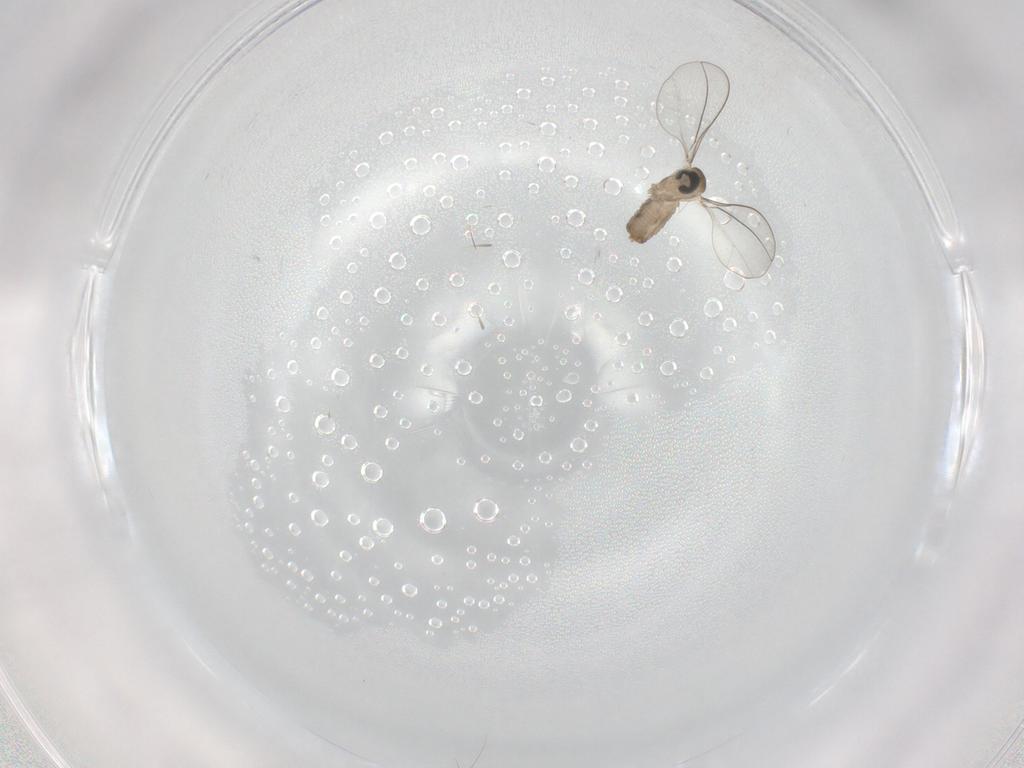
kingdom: Animalia
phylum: Arthropoda
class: Insecta
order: Diptera
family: Cecidomyiidae
